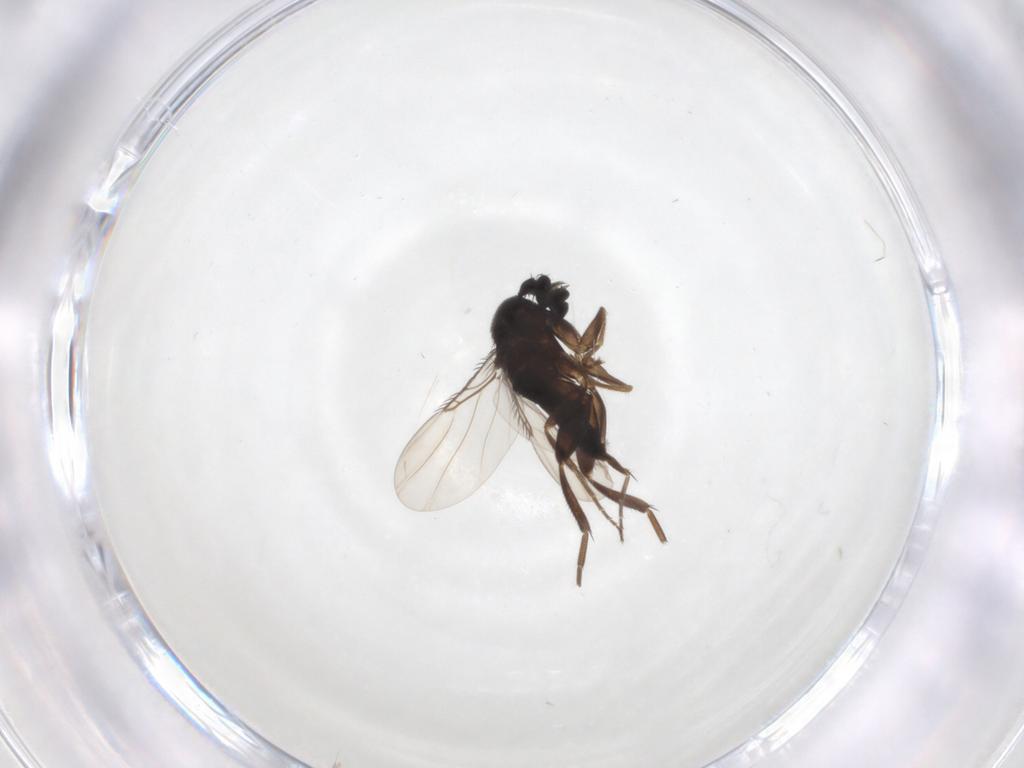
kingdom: Animalia
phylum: Arthropoda
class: Insecta
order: Diptera
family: Phoridae
